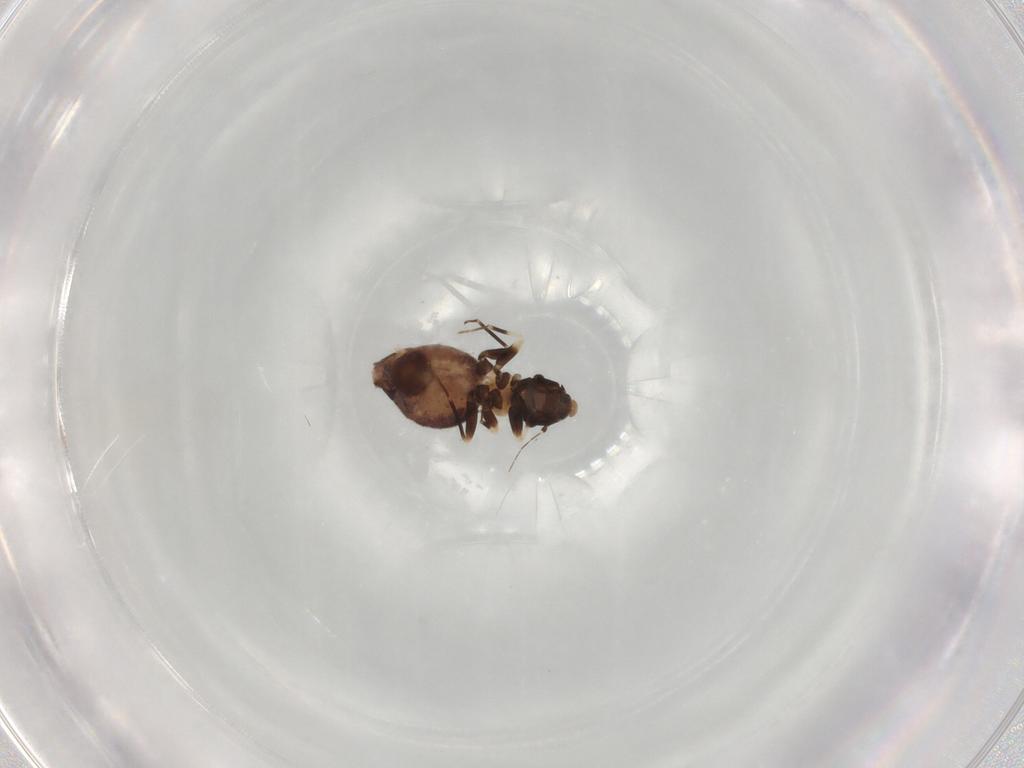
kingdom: Animalia
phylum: Arthropoda
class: Insecta
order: Psocodea
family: Lepidopsocidae
